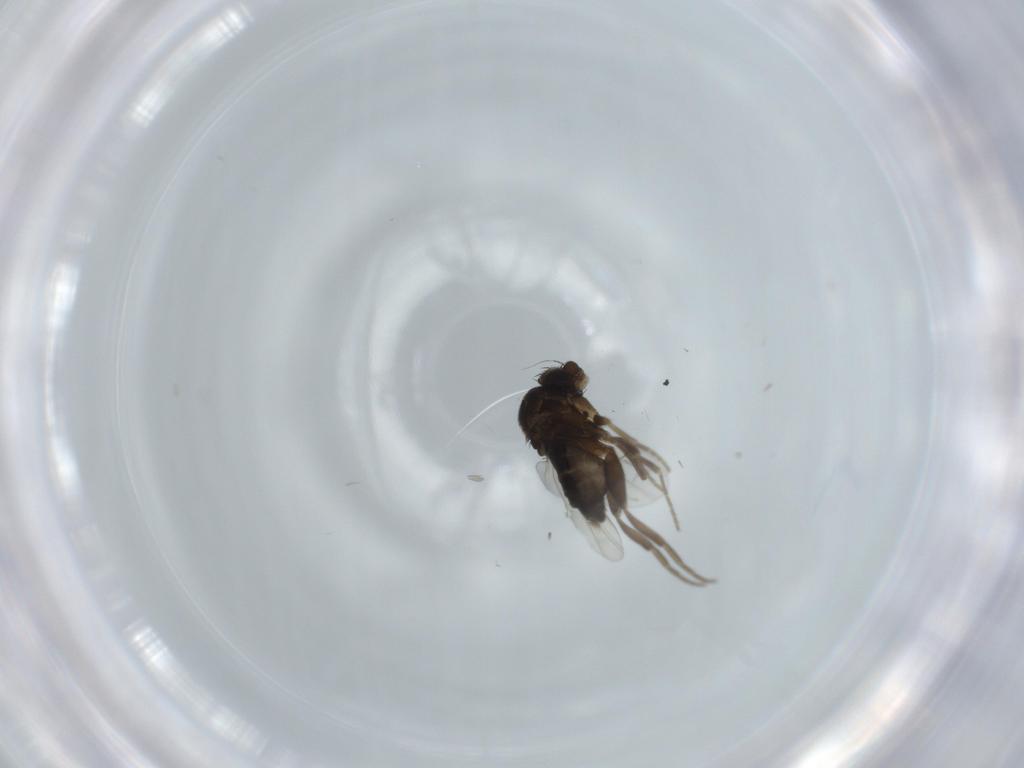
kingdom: Animalia
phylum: Arthropoda
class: Insecta
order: Diptera
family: Phoridae
